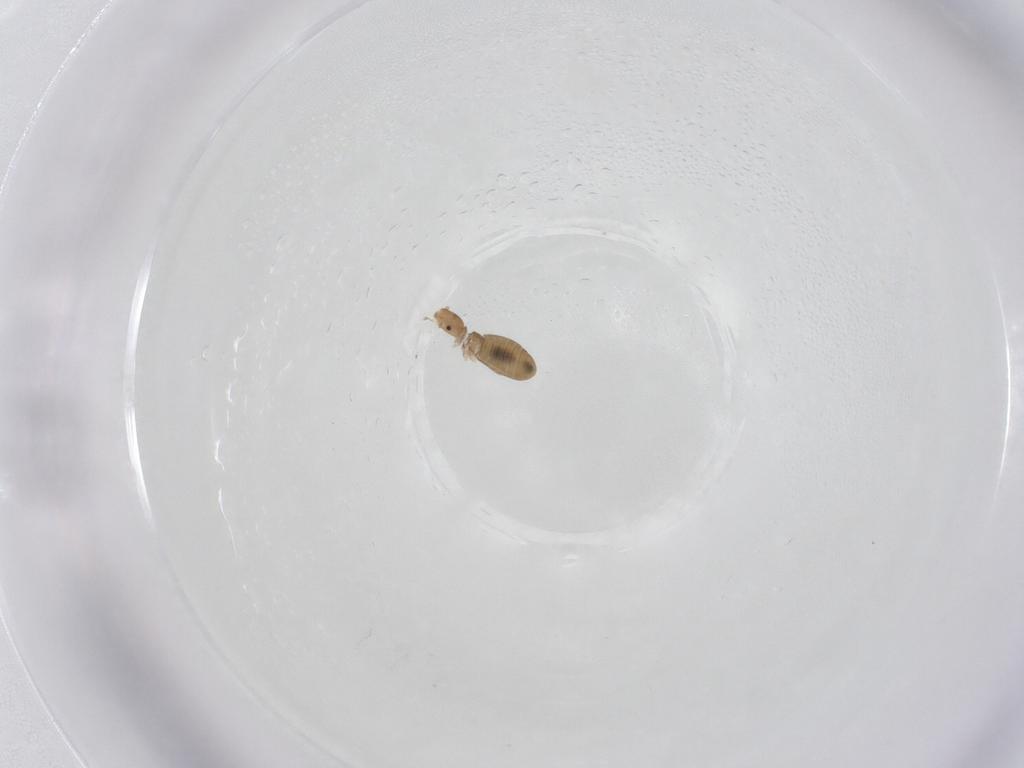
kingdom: Animalia
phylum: Arthropoda
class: Insecta
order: Psocodea
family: Liposcelididae
